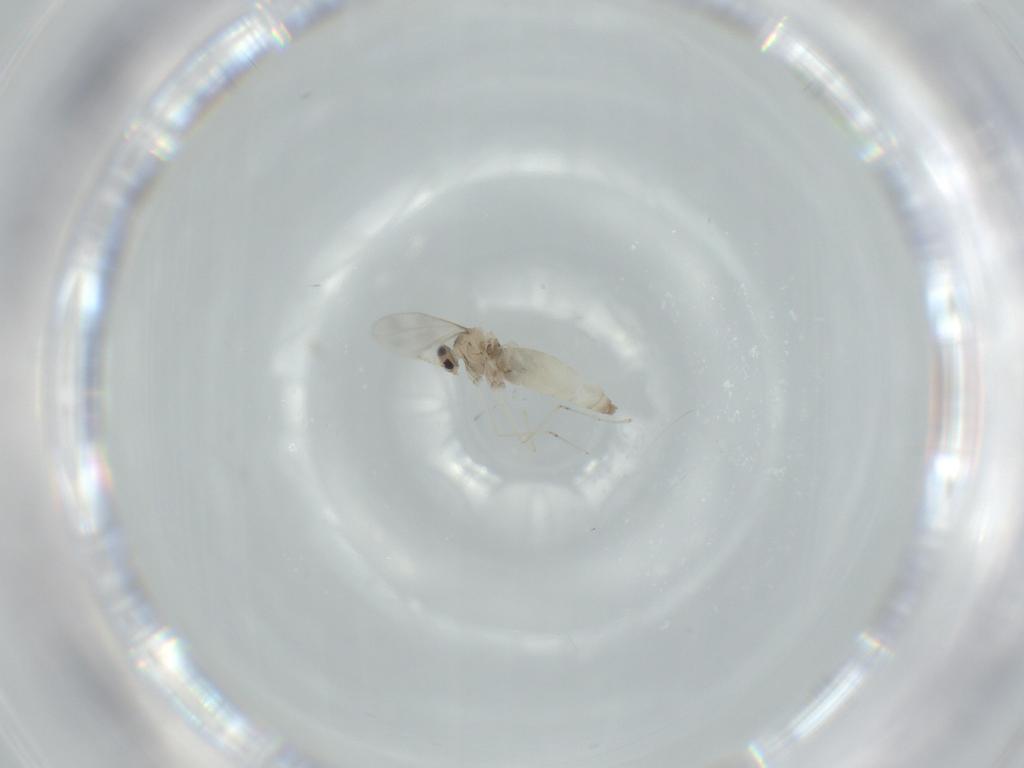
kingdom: Animalia
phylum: Arthropoda
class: Insecta
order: Diptera
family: Cecidomyiidae
